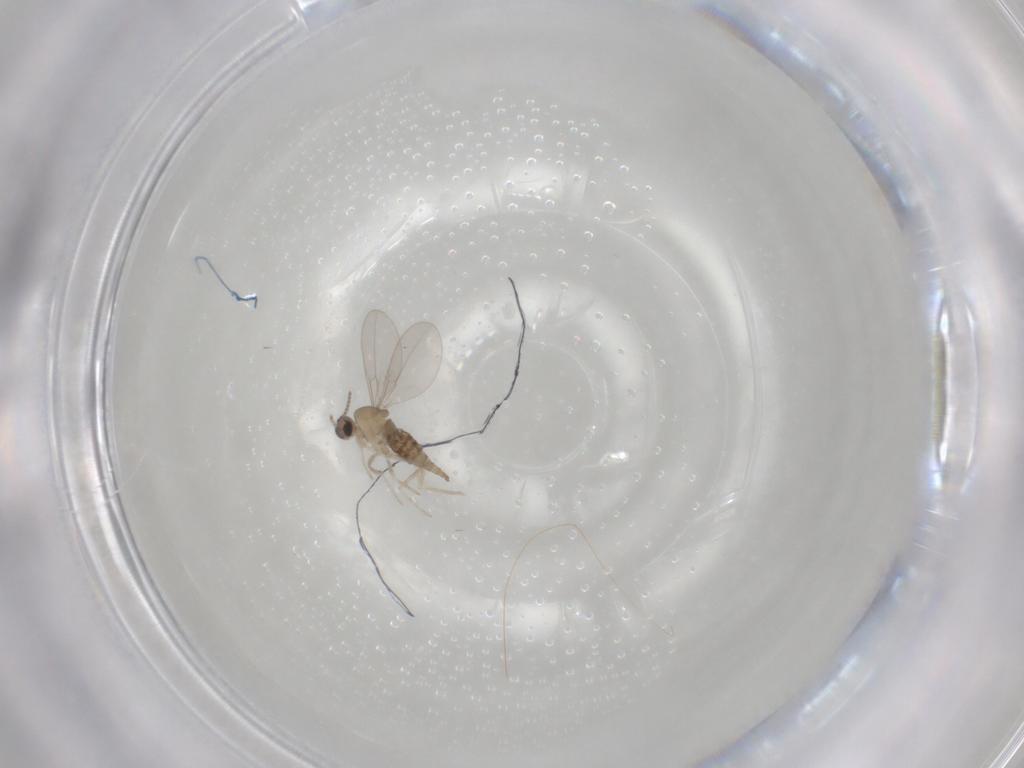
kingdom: Animalia
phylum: Arthropoda
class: Insecta
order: Diptera
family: Cecidomyiidae
